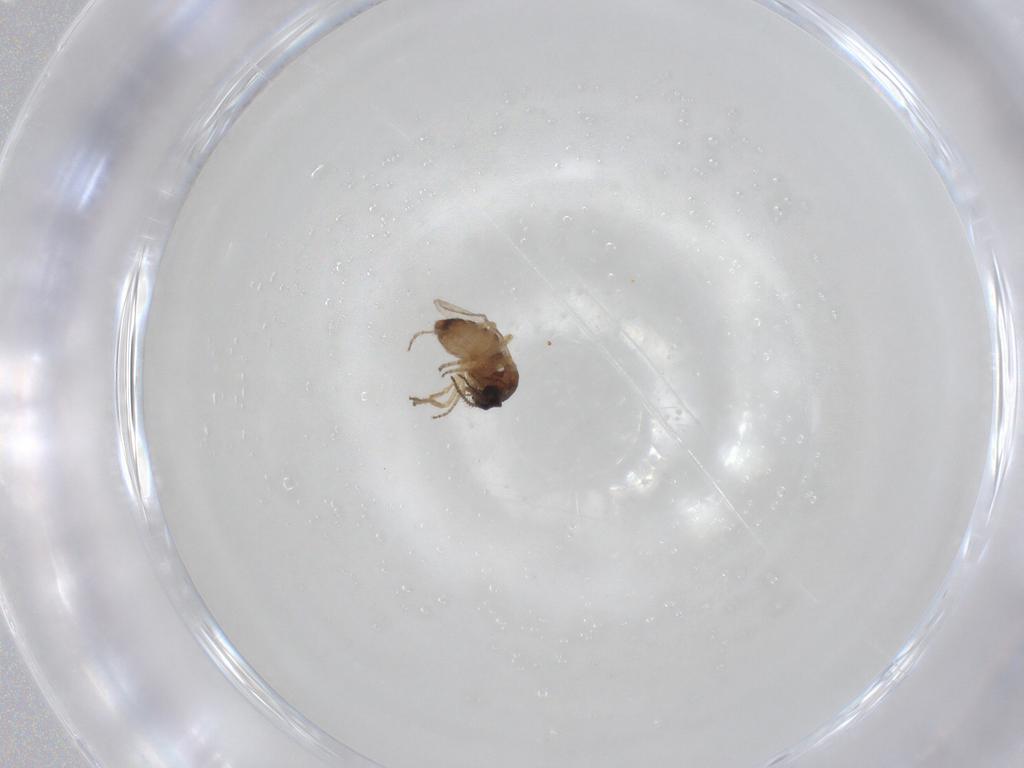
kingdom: Animalia
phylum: Arthropoda
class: Insecta
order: Diptera
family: Ceratopogonidae
